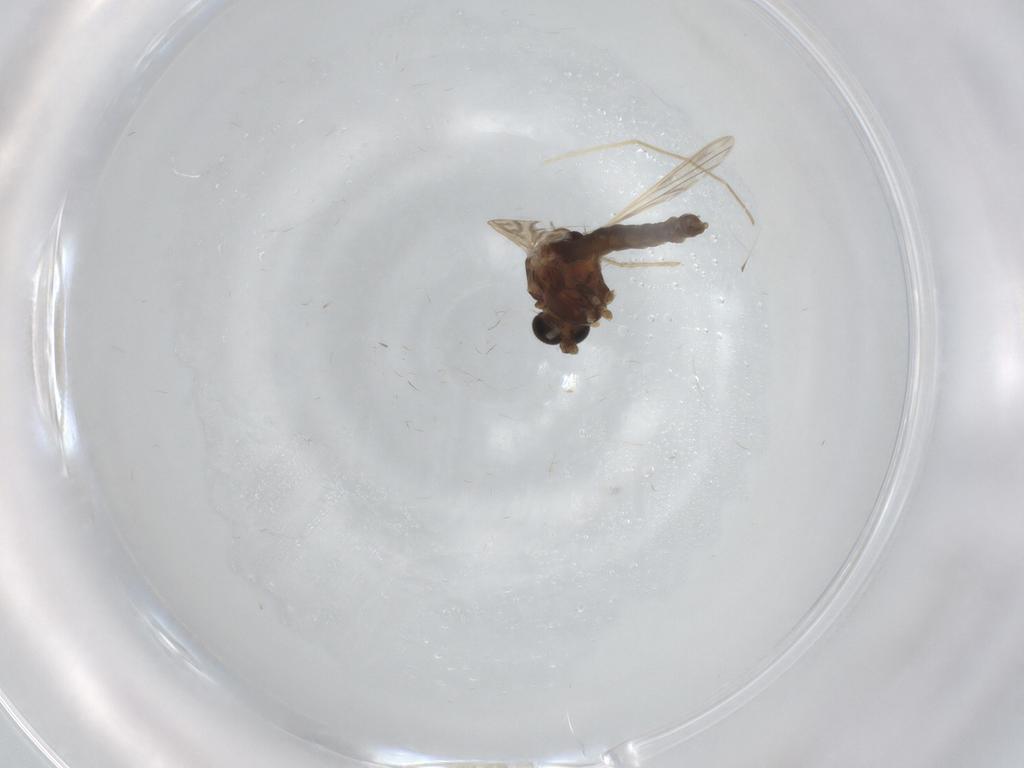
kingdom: Animalia
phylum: Arthropoda
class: Insecta
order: Diptera
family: Chironomidae
